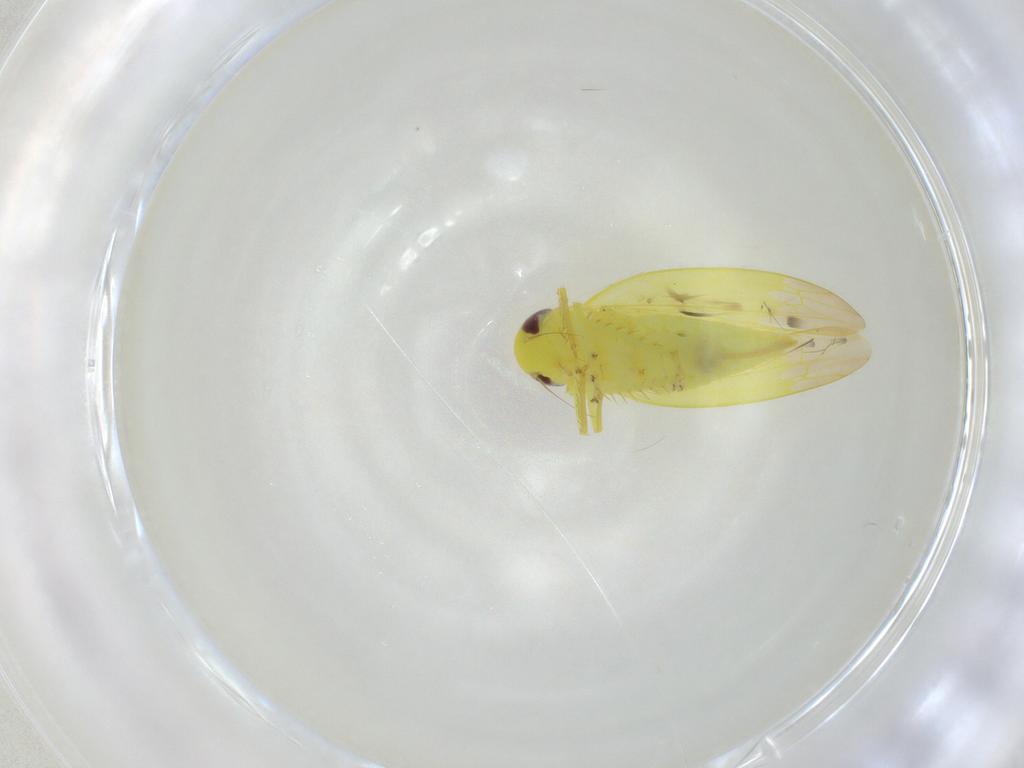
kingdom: Animalia
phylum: Arthropoda
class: Insecta
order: Hemiptera
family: Cicadellidae
